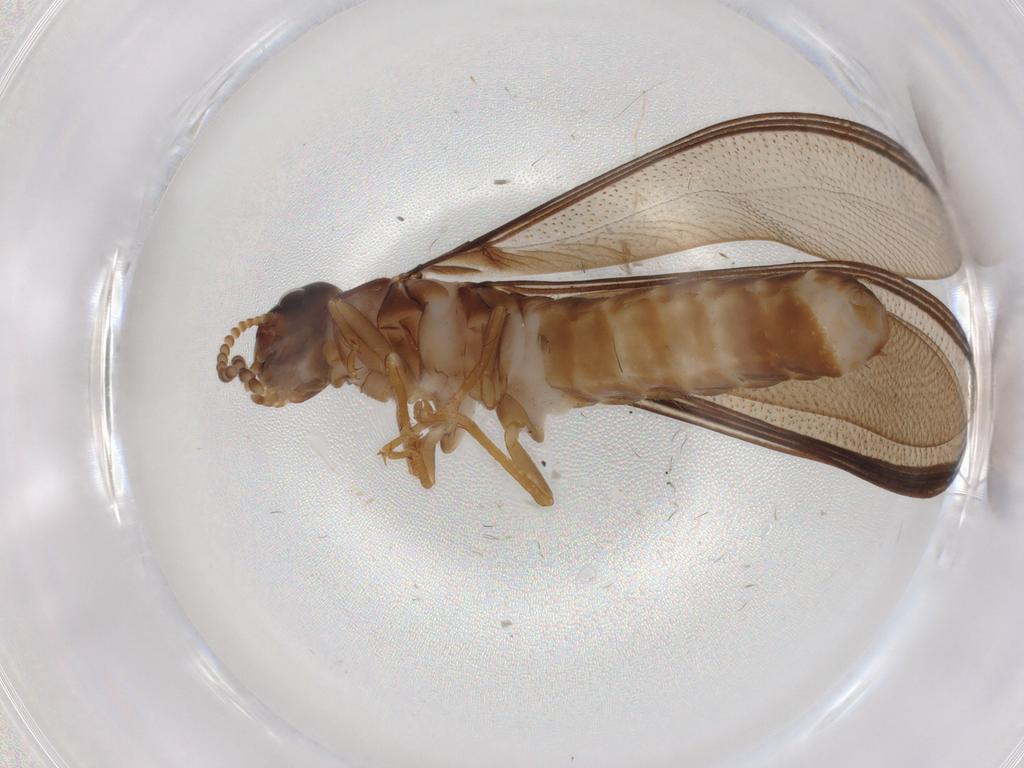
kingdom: Animalia
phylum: Arthropoda
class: Insecta
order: Blattodea
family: Kalotermitidae
